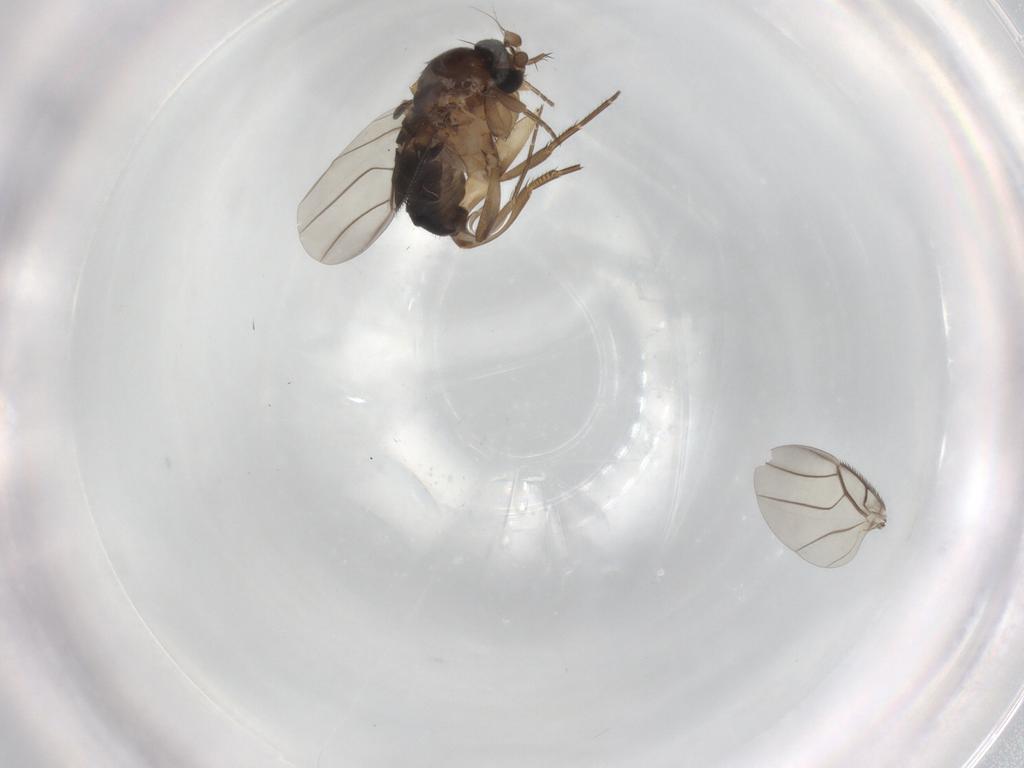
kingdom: Animalia
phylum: Arthropoda
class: Insecta
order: Diptera
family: Phoridae
